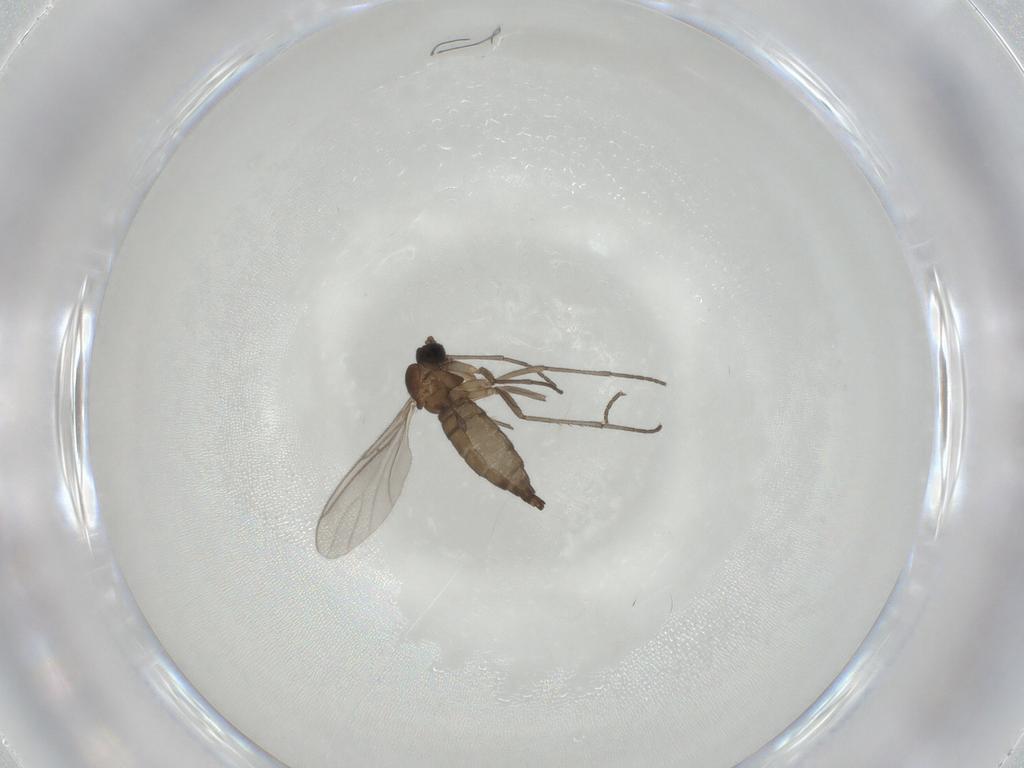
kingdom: Animalia
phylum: Arthropoda
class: Insecta
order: Diptera
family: Sciaridae
